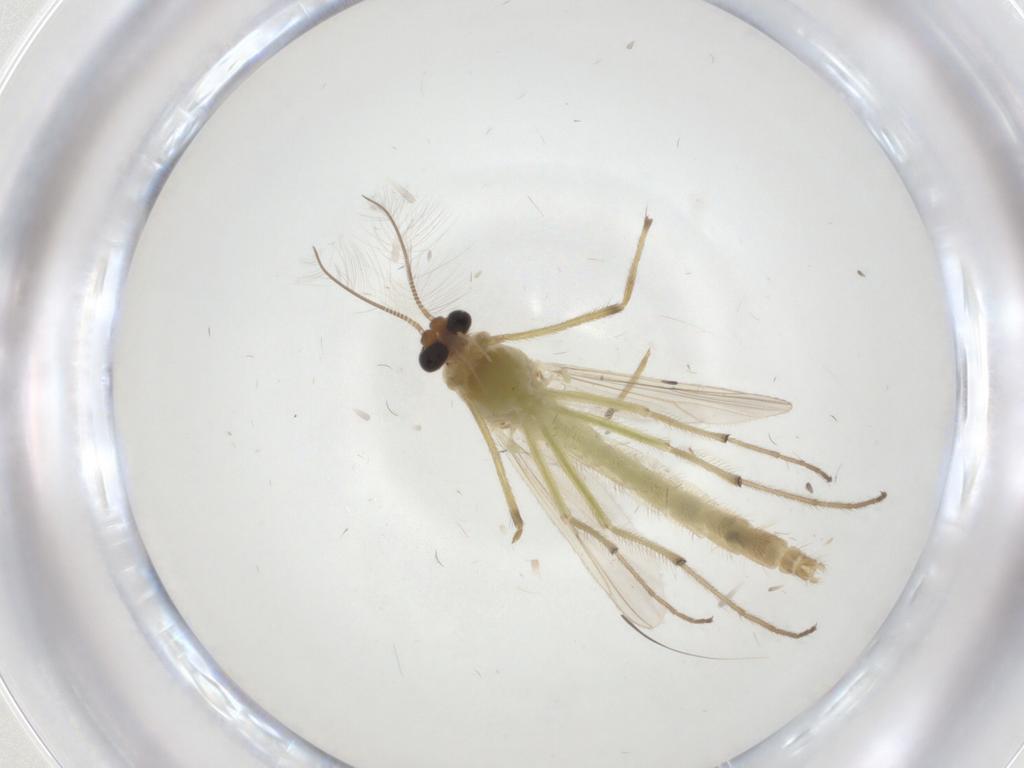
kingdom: Animalia
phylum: Arthropoda
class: Insecta
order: Diptera
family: Chironomidae
